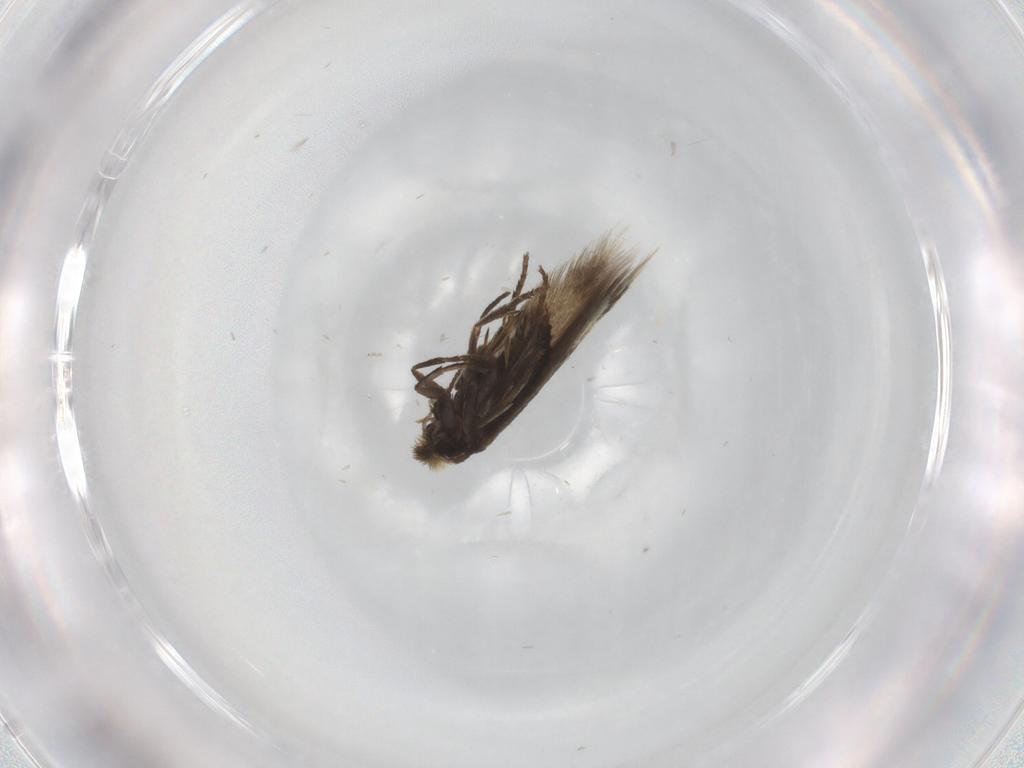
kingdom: Animalia
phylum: Arthropoda
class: Insecta
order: Lepidoptera
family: Nepticulidae
